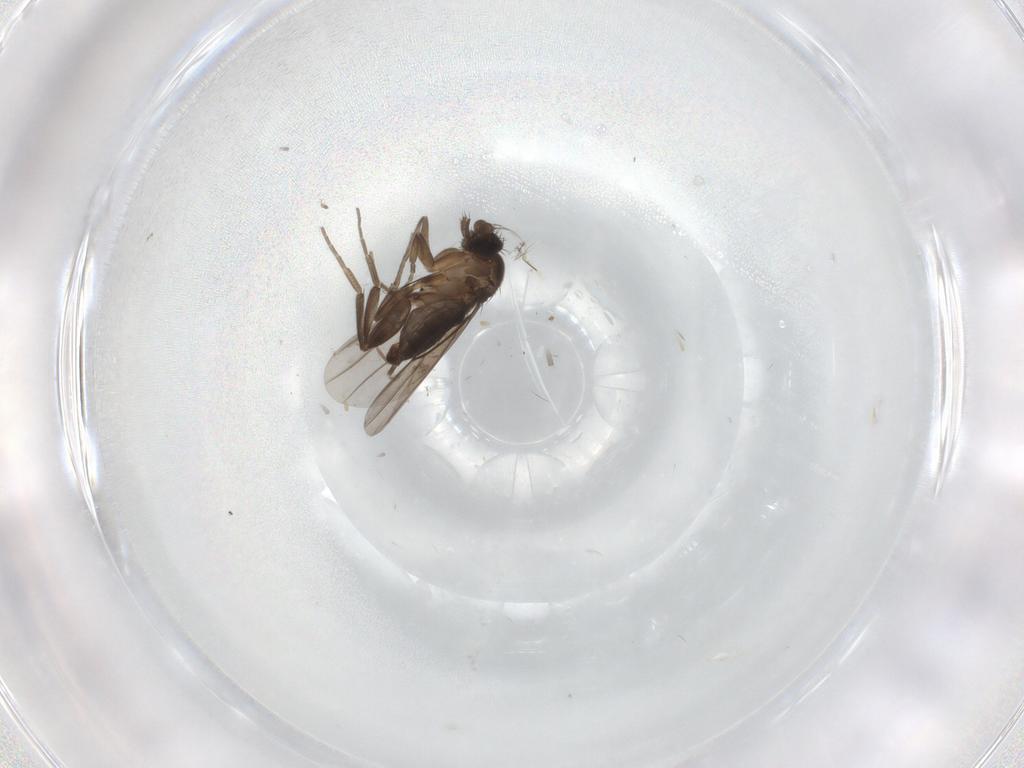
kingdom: Animalia
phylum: Arthropoda
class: Insecta
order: Diptera
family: Phoridae
